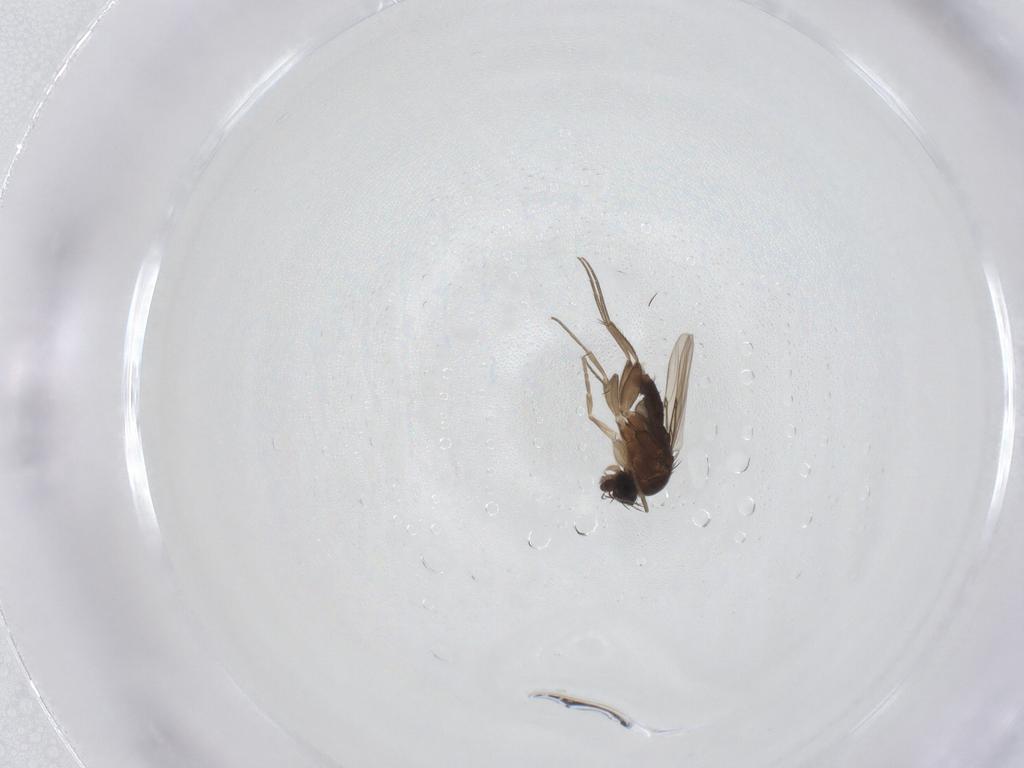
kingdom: Animalia
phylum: Arthropoda
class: Insecta
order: Diptera
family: Phoridae
